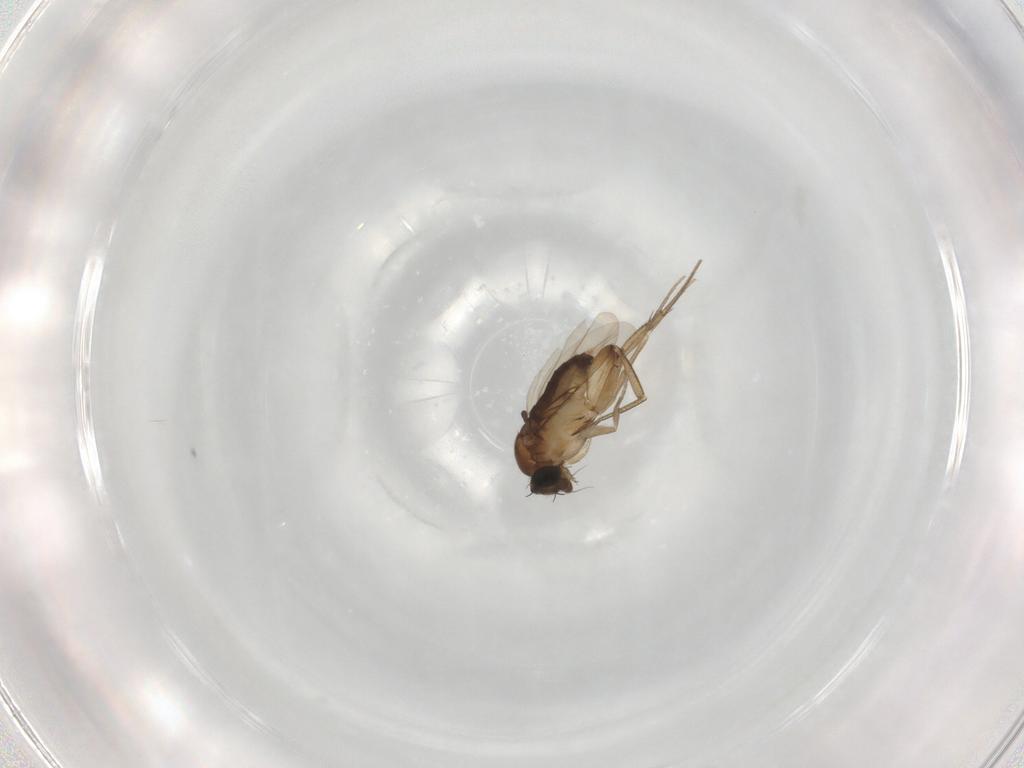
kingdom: Animalia
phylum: Arthropoda
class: Insecta
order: Diptera
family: Phoridae
